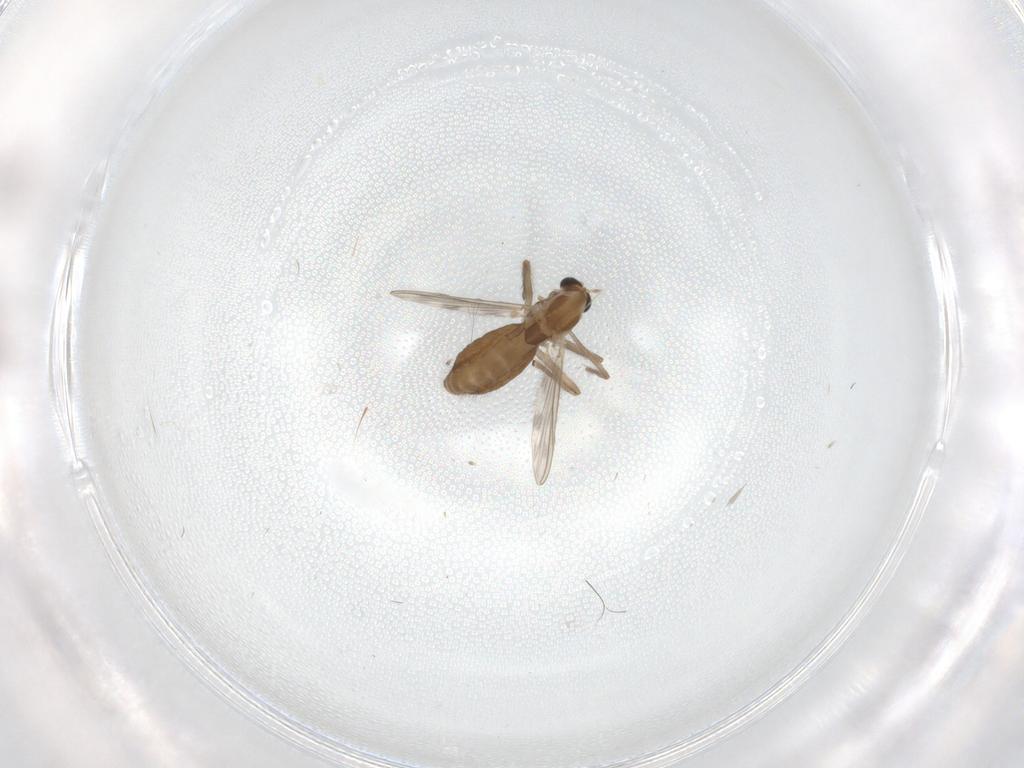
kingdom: Animalia
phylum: Arthropoda
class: Insecta
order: Diptera
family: Chironomidae
